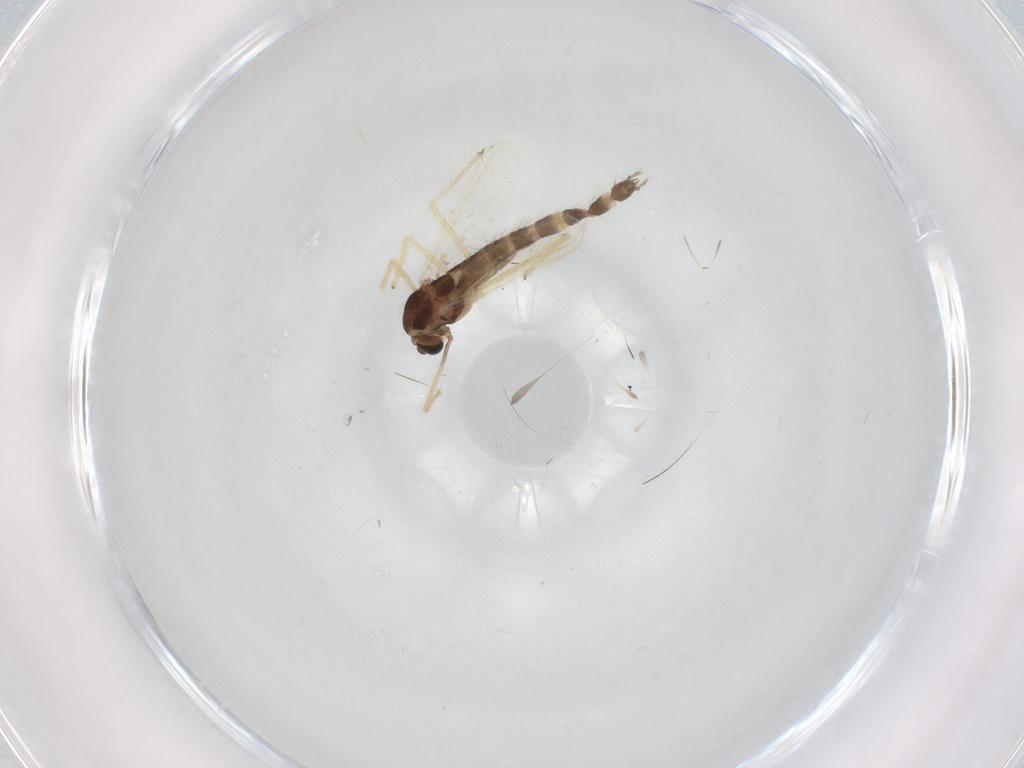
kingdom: Animalia
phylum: Arthropoda
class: Insecta
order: Diptera
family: Chironomidae
